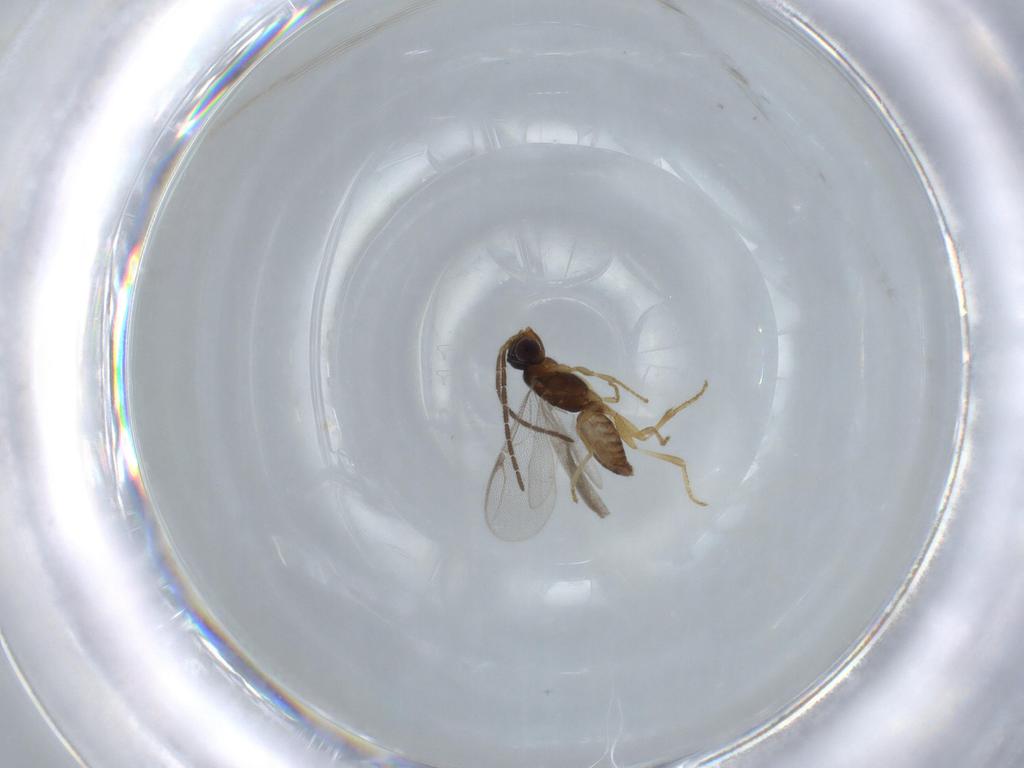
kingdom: Animalia
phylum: Arthropoda
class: Insecta
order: Hymenoptera
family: Dryinidae
